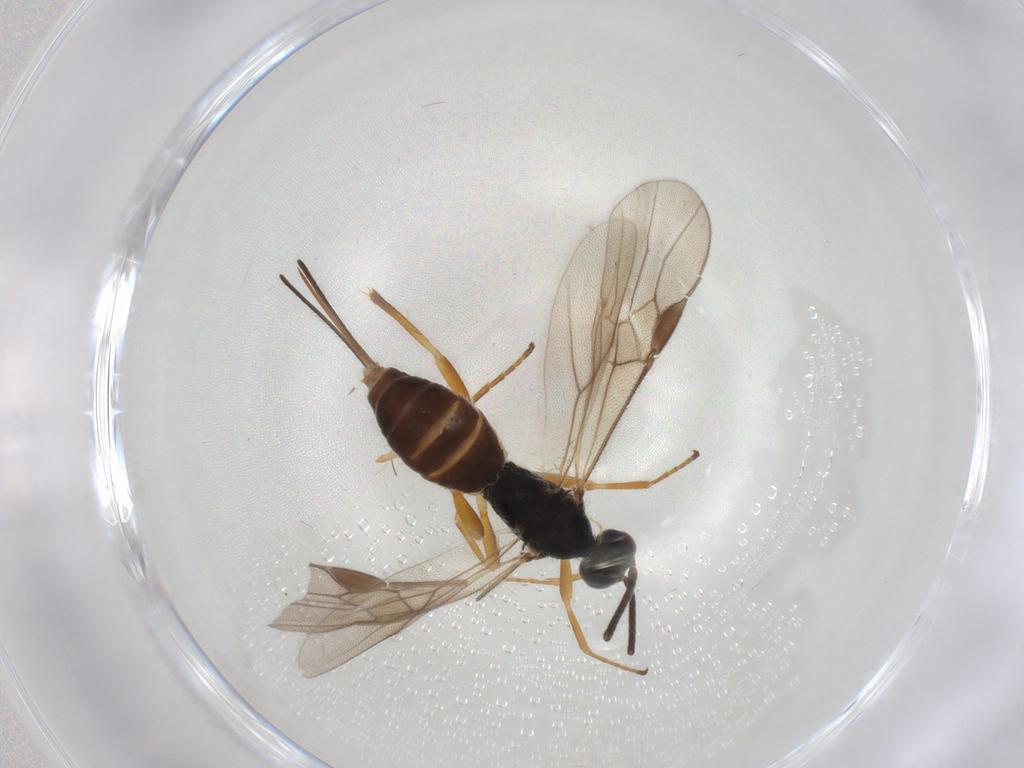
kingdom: Animalia
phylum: Arthropoda
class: Insecta
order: Hymenoptera
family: Braconidae
